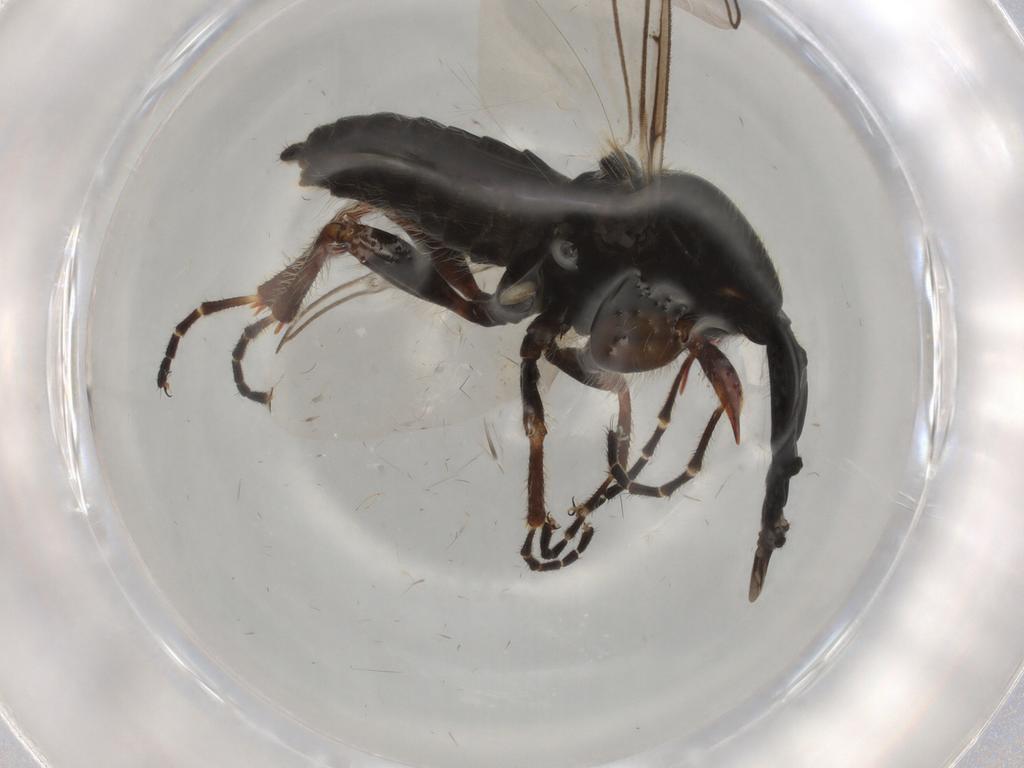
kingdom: Animalia
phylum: Arthropoda
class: Insecta
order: Diptera
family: Bibionidae
